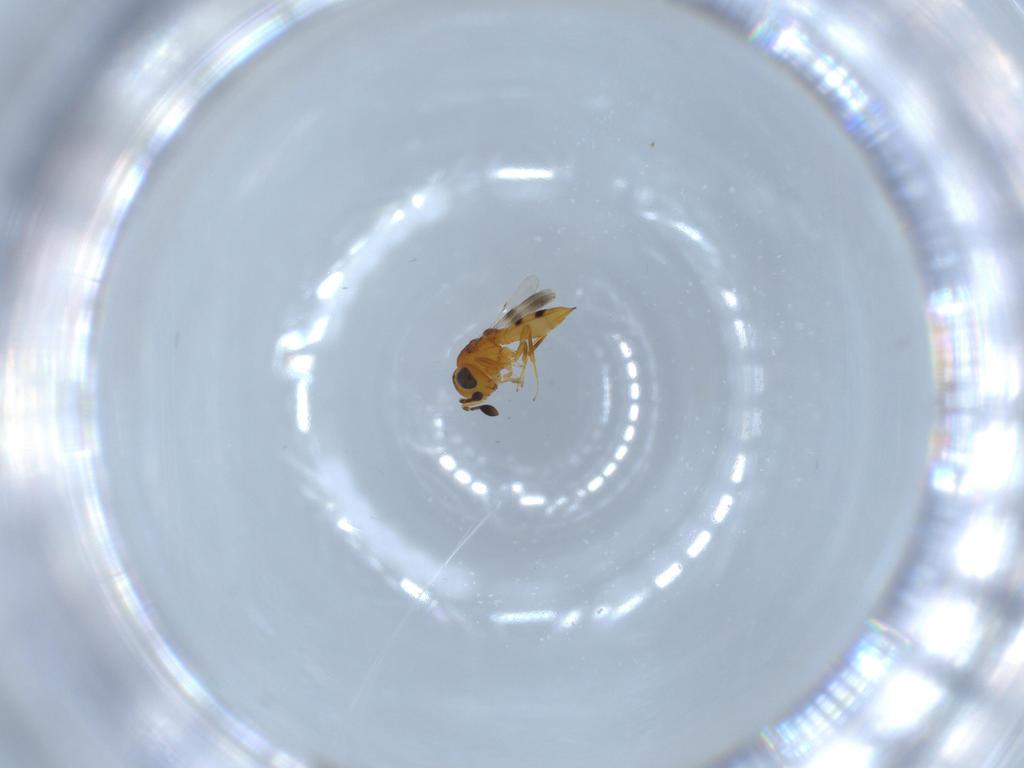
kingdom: Animalia
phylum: Arthropoda
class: Insecta
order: Hymenoptera
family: Scelionidae
